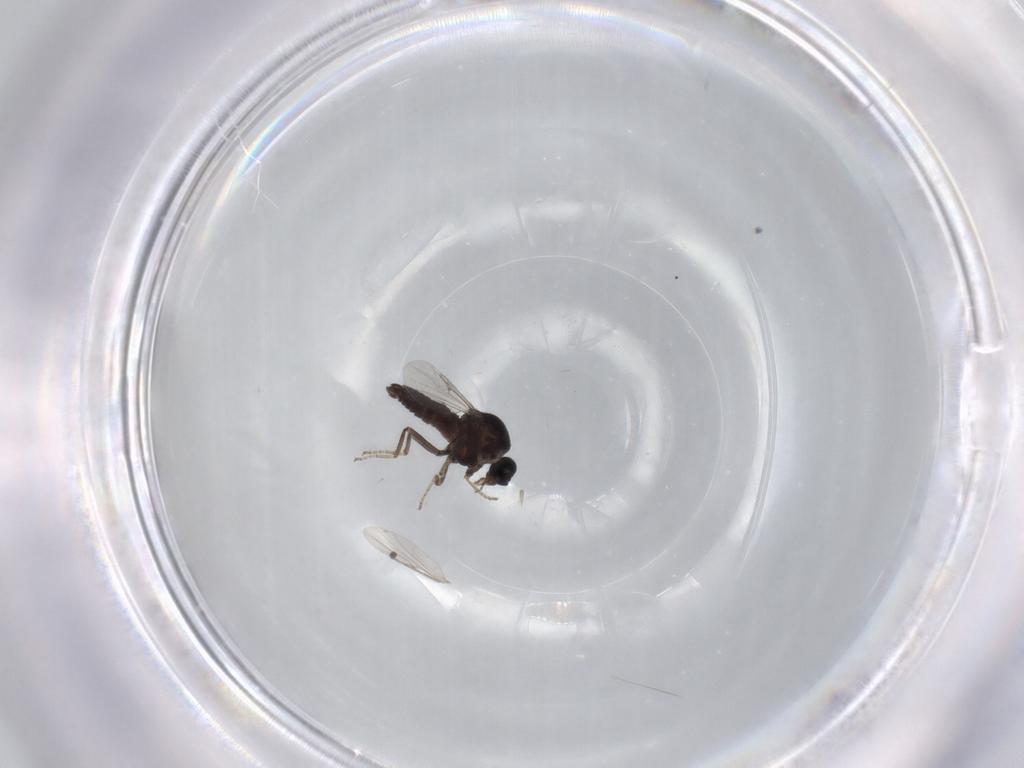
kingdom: Animalia
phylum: Arthropoda
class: Insecta
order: Diptera
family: Ceratopogonidae
